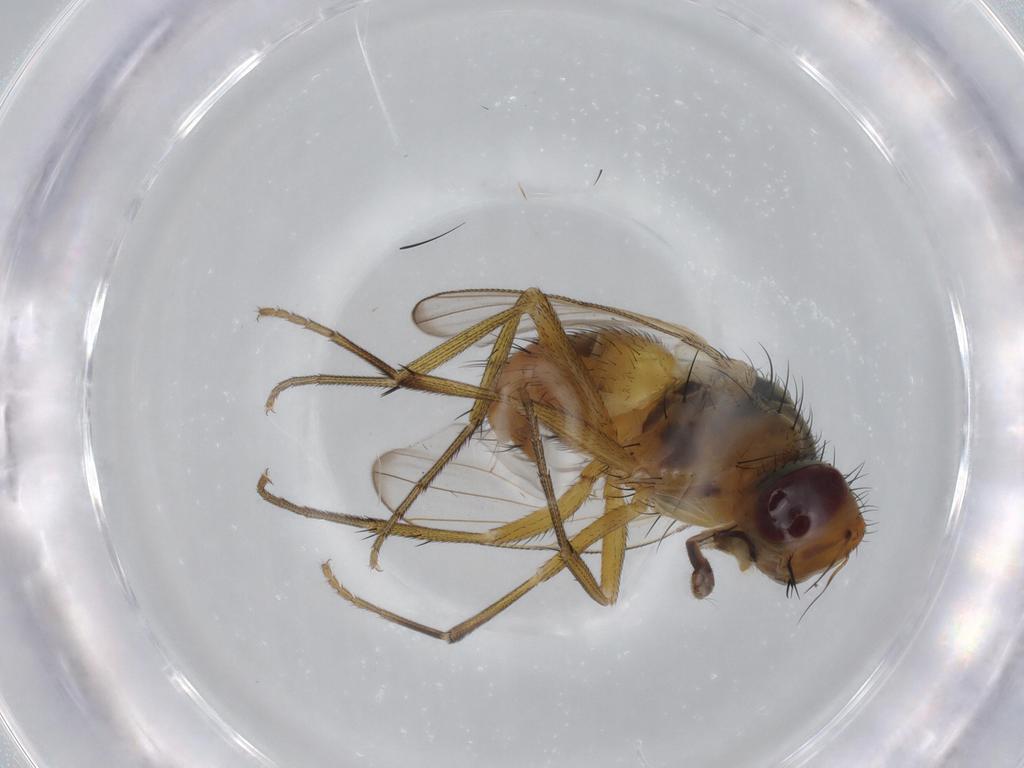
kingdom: Animalia
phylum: Arthropoda
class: Insecta
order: Diptera
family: Muscidae
